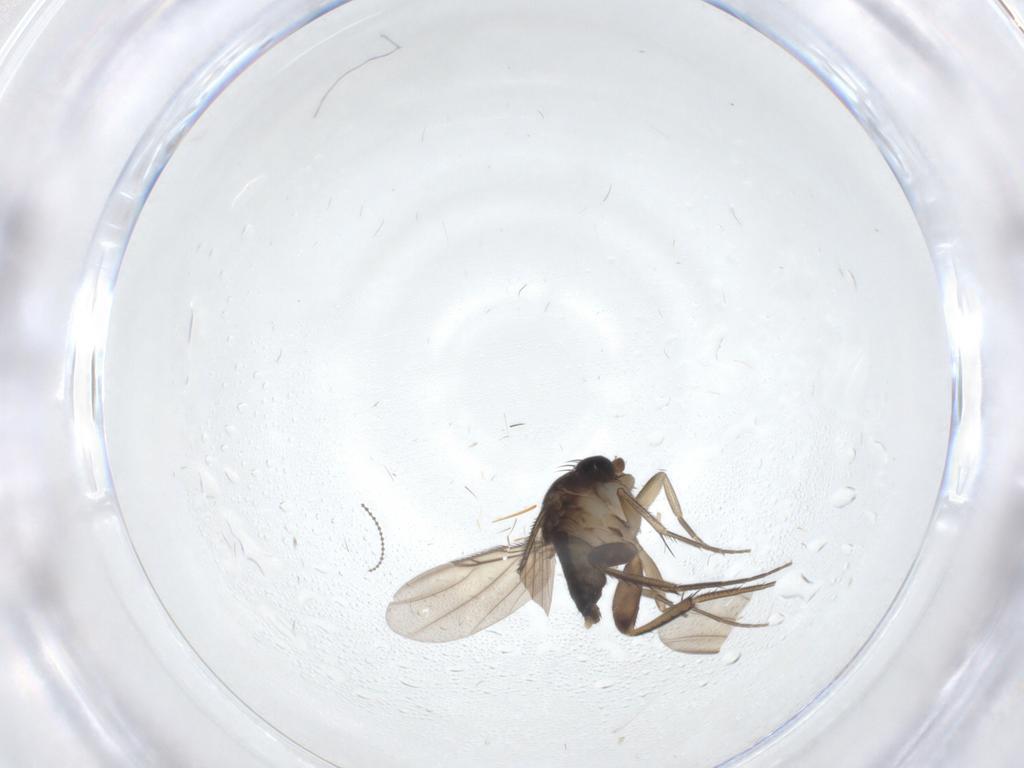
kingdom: Animalia
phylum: Arthropoda
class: Insecta
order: Diptera
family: Phoridae
